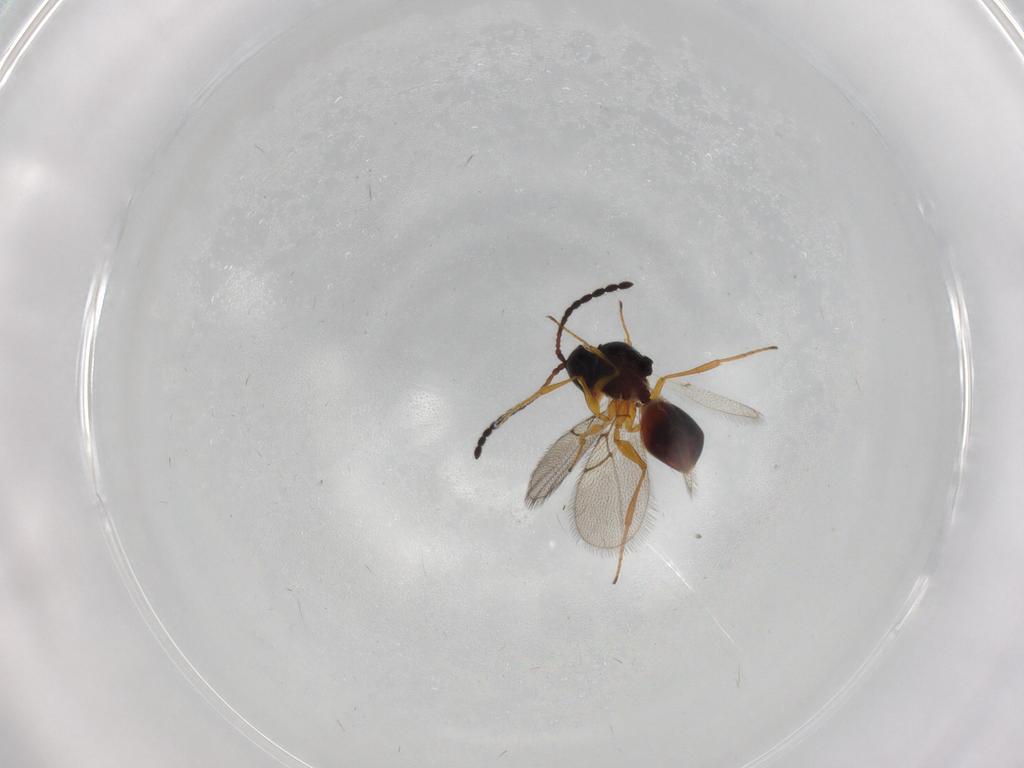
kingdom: Animalia
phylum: Arthropoda
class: Insecta
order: Hymenoptera
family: Figitidae
